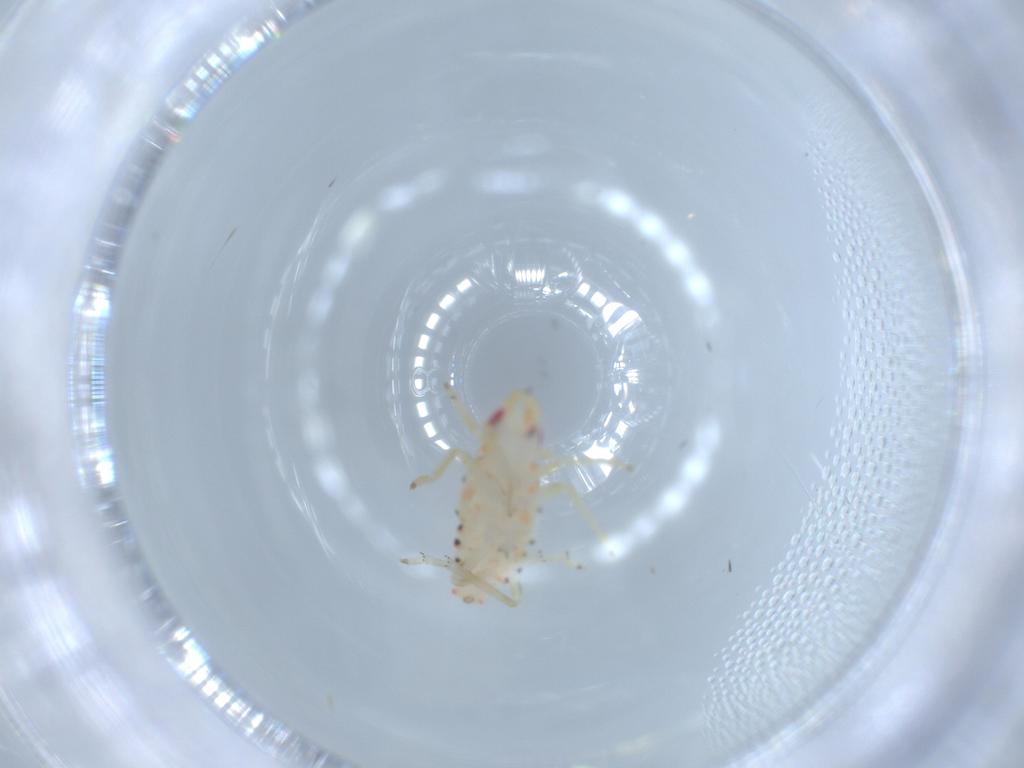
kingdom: Animalia
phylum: Arthropoda
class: Insecta
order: Hemiptera
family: Tropiduchidae
